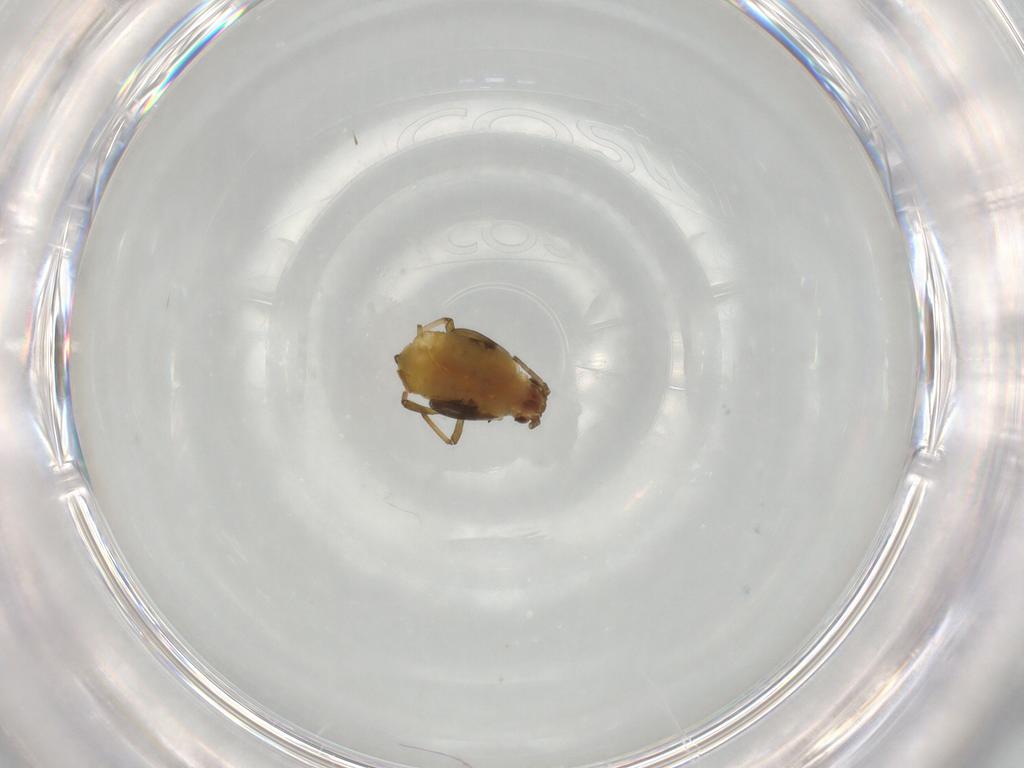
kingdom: Animalia
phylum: Arthropoda
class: Insecta
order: Hemiptera
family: Aphididae
